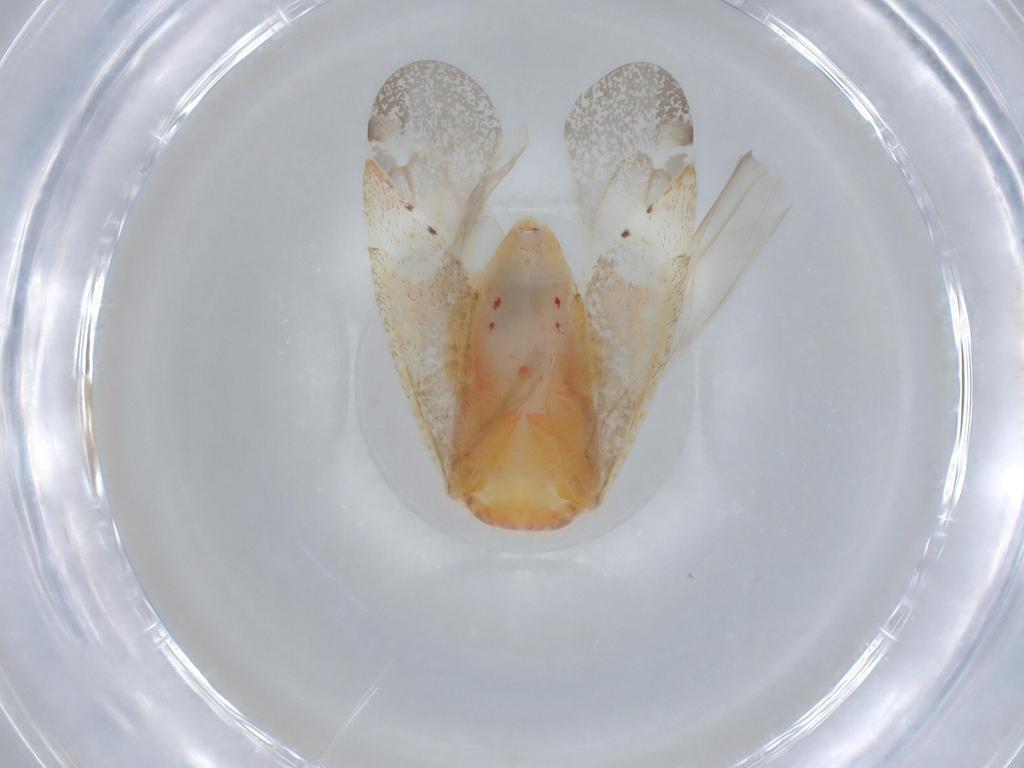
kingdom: Animalia
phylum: Arthropoda
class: Insecta
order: Hemiptera
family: Miridae
